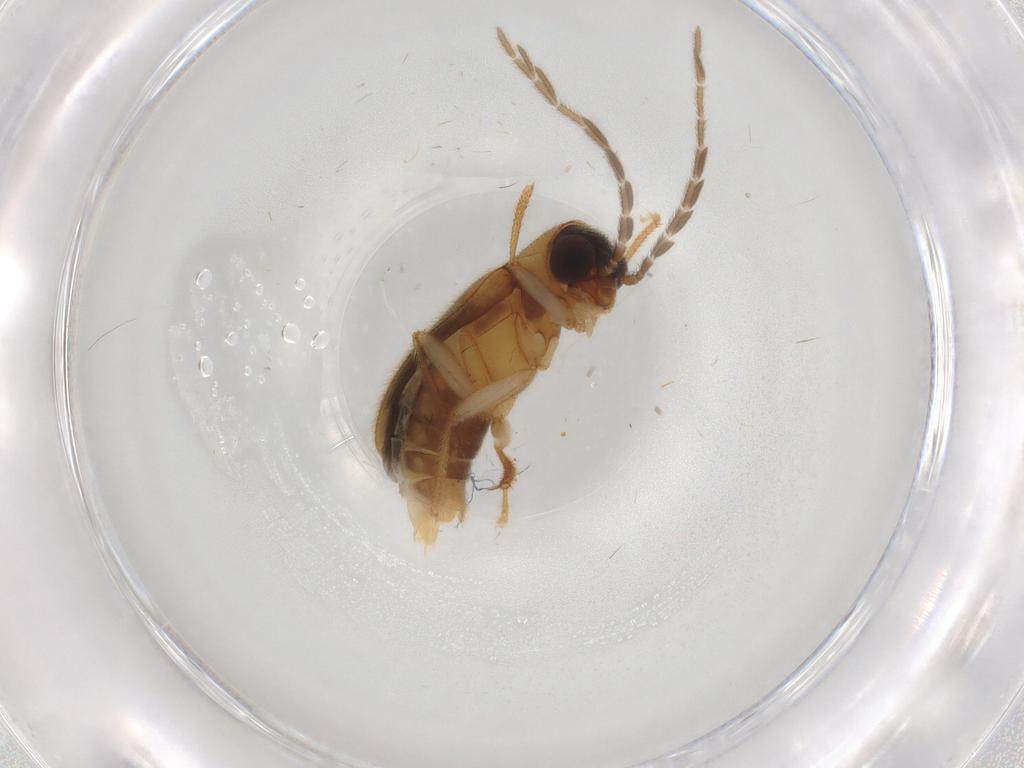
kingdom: Animalia
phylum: Arthropoda
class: Insecta
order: Coleoptera
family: Ptilodactylidae
